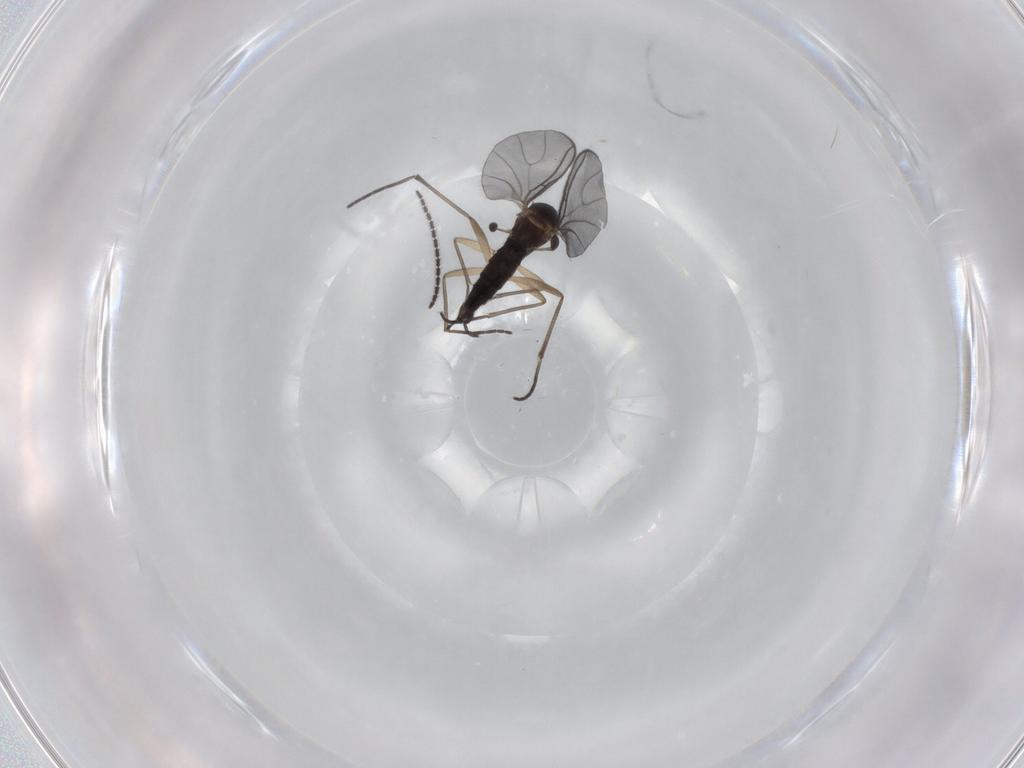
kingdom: Animalia
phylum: Arthropoda
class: Insecta
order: Diptera
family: Sciaridae
